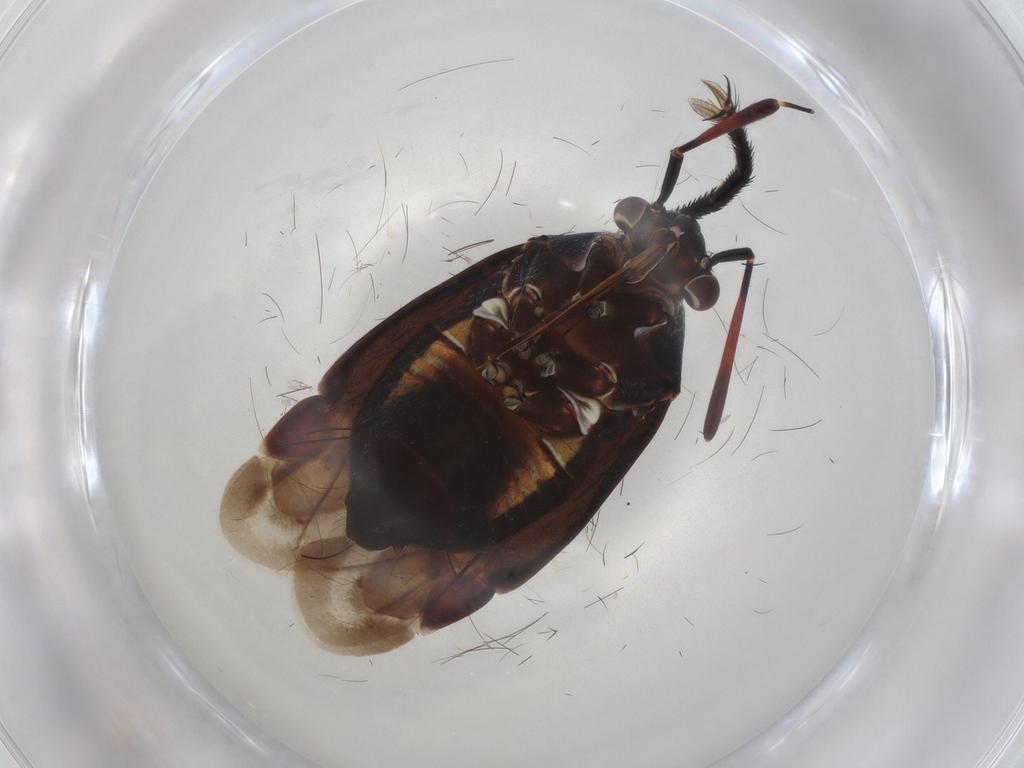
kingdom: Animalia
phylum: Arthropoda
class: Insecta
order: Hemiptera
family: Miridae
